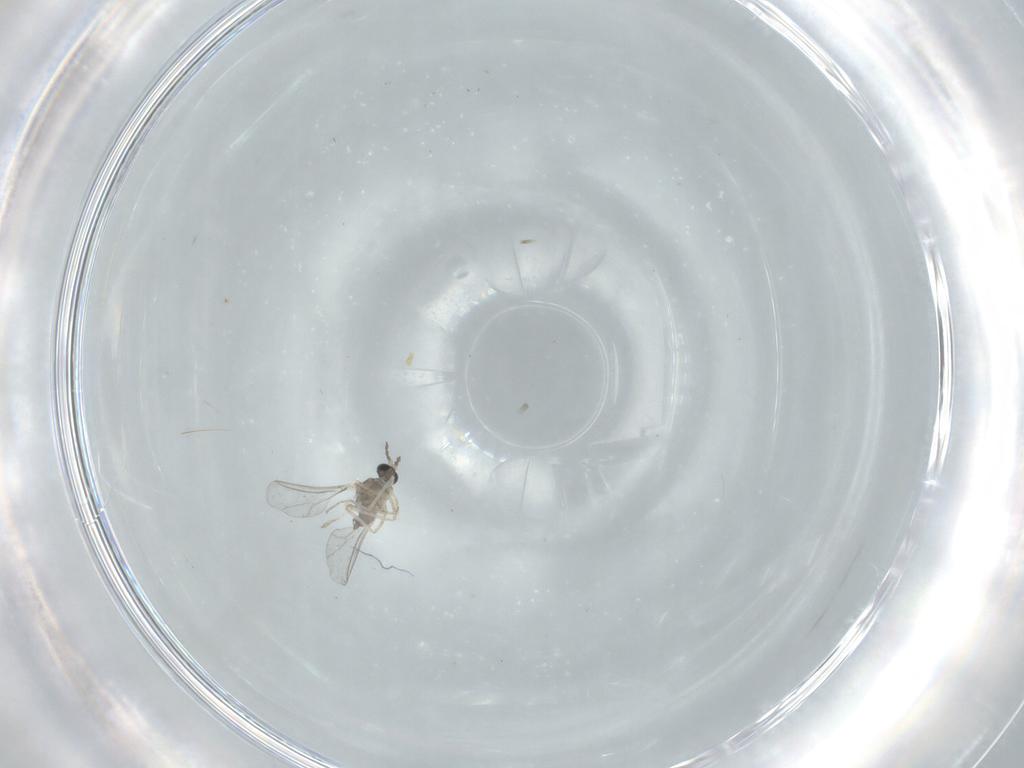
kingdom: Animalia
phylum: Arthropoda
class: Insecta
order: Diptera
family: Cecidomyiidae
